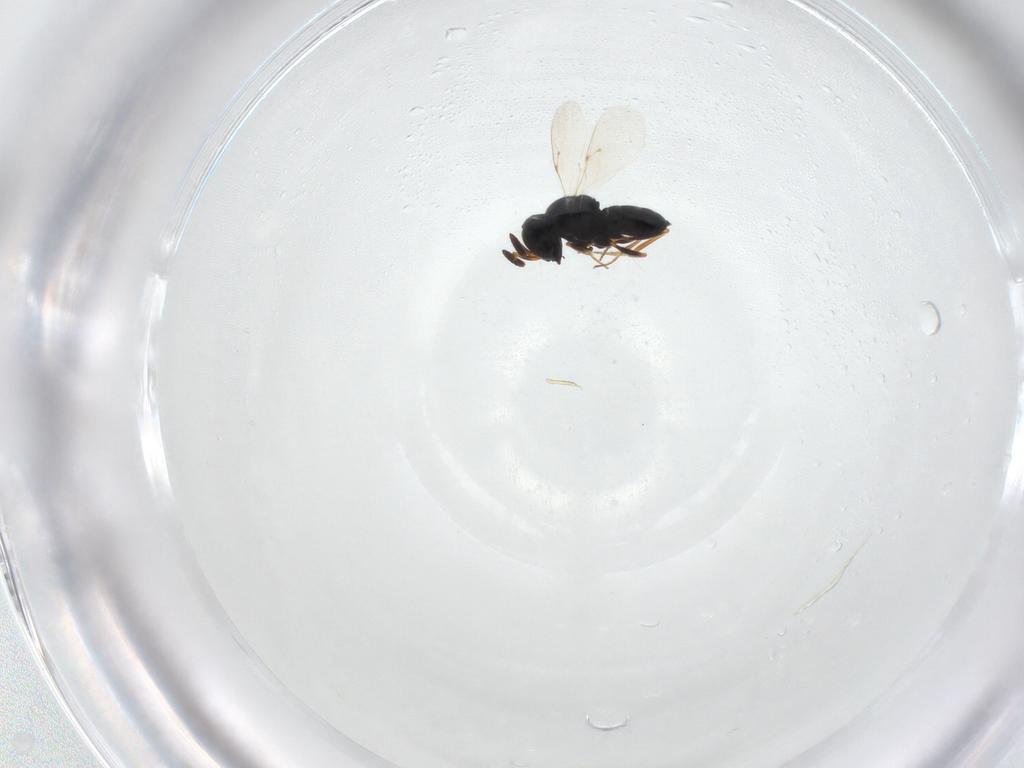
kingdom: Animalia
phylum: Arthropoda
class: Insecta
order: Hymenoptera
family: Scelionidae
